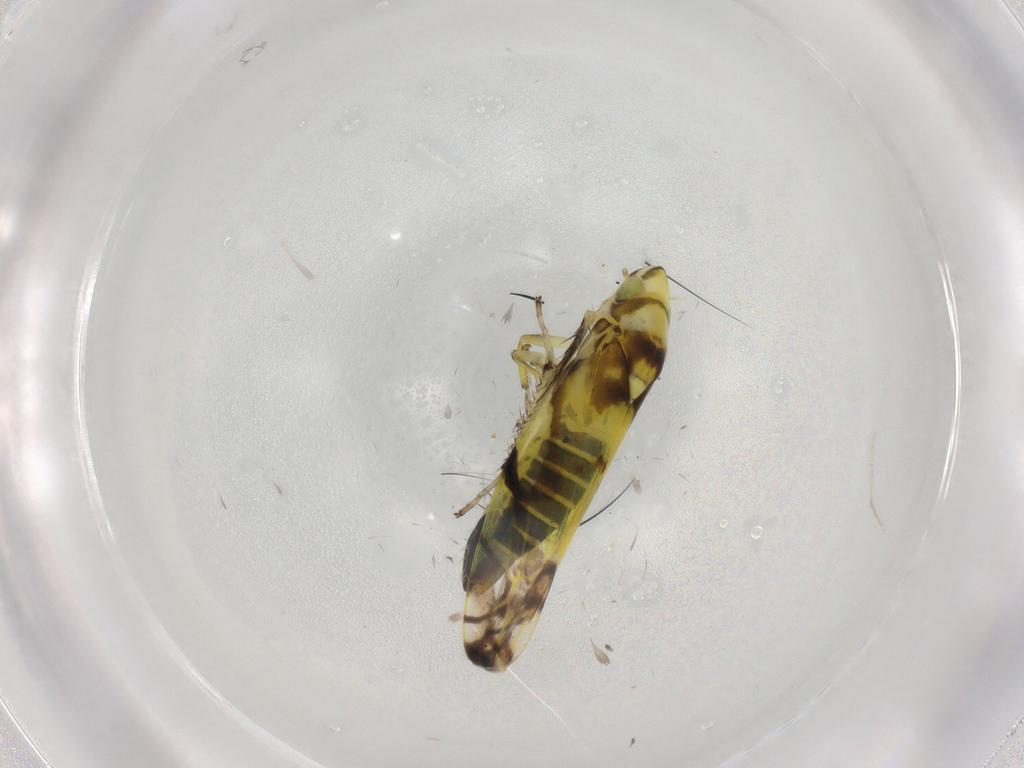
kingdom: Animalia
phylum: Arthropoda
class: Insecta
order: Hemiptera
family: Cicadellidae
